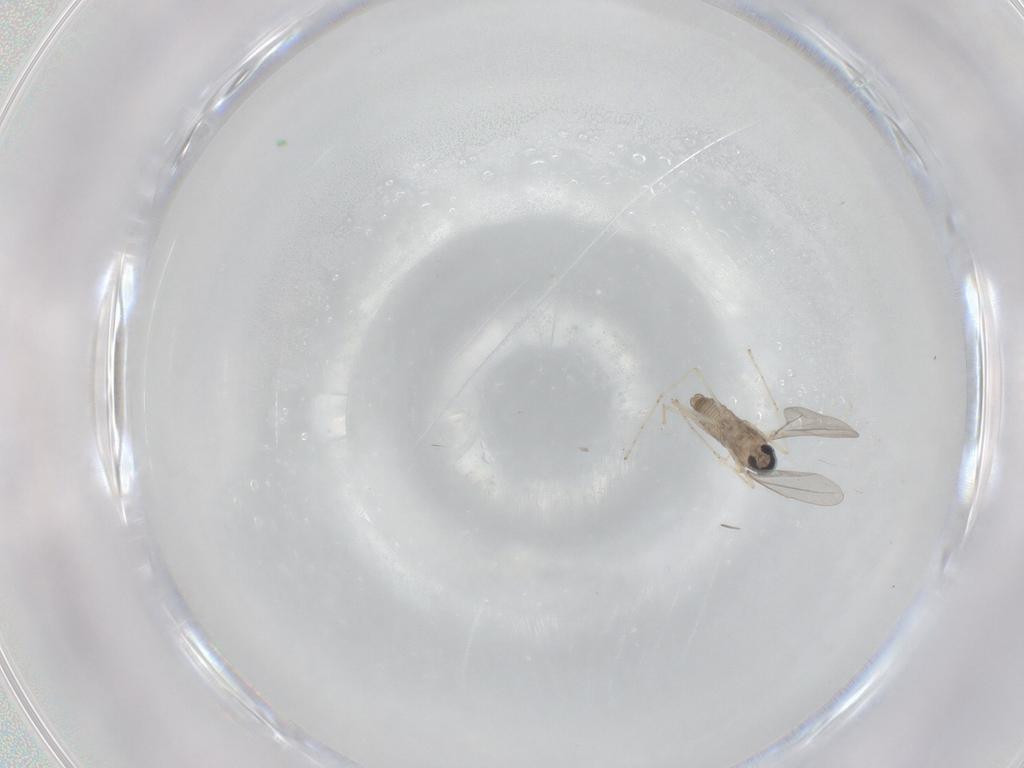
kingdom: Animalia
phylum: Arthropoda
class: Insecta
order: Diptera
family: Cecidomyiidae
